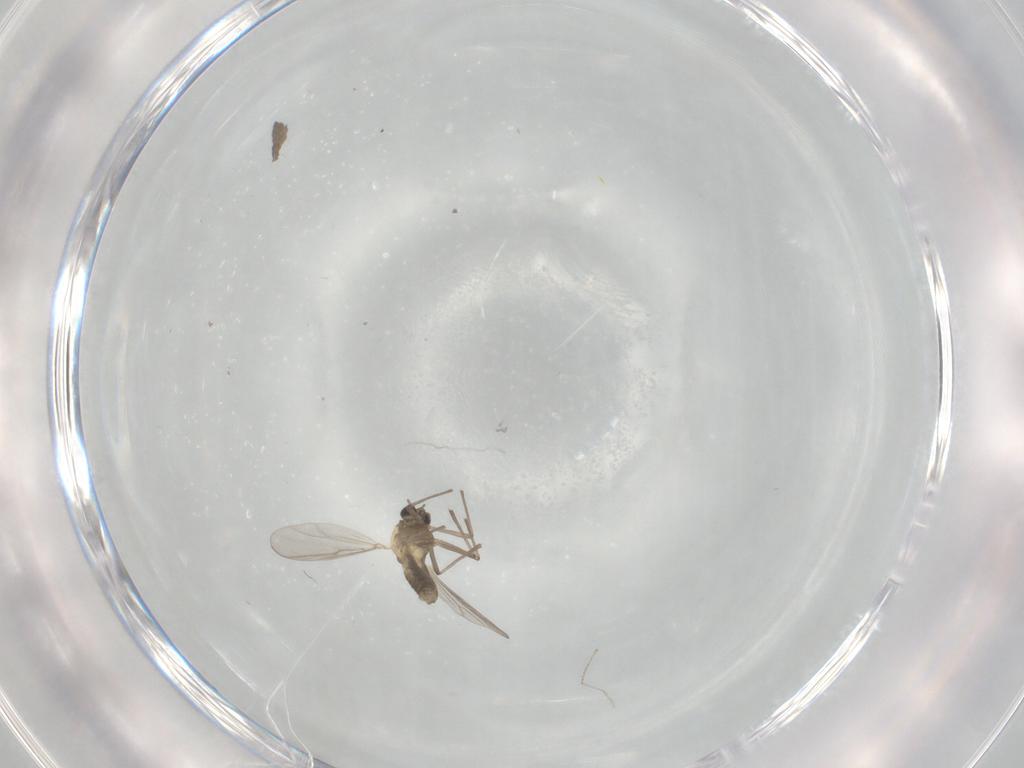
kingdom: Animalia
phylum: Arthropoda
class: Insecta
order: Diptera
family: Chironomidae
